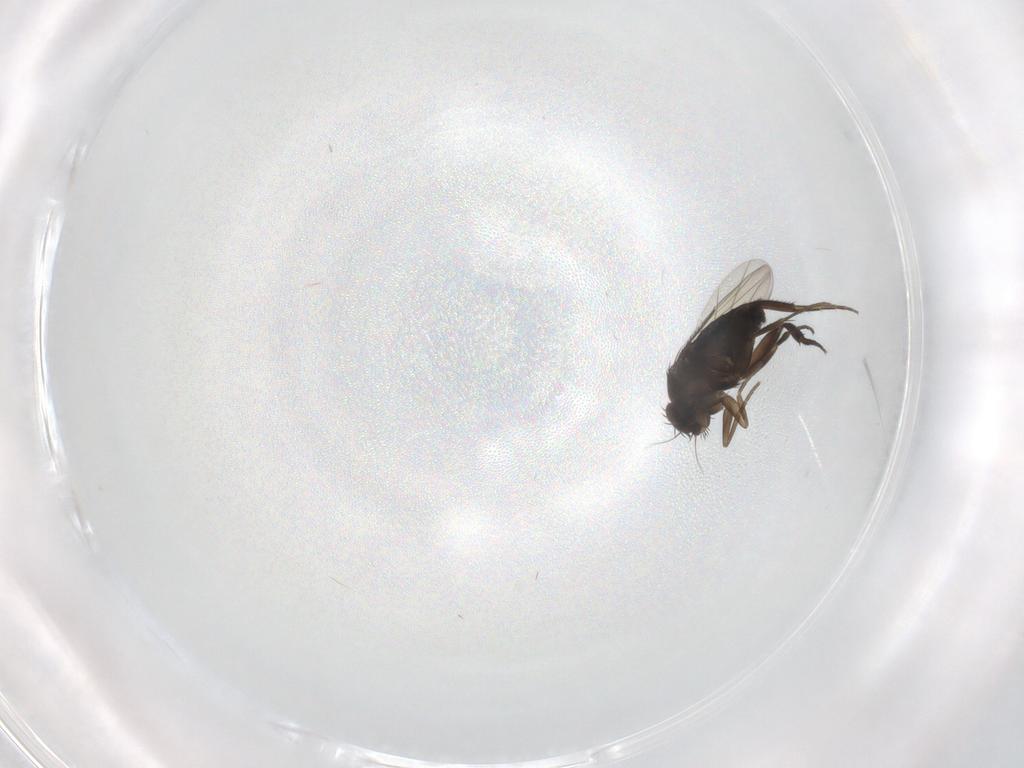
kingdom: Animalia
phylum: Arthropoda
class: Insecta
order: Diptera
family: Phoridae
